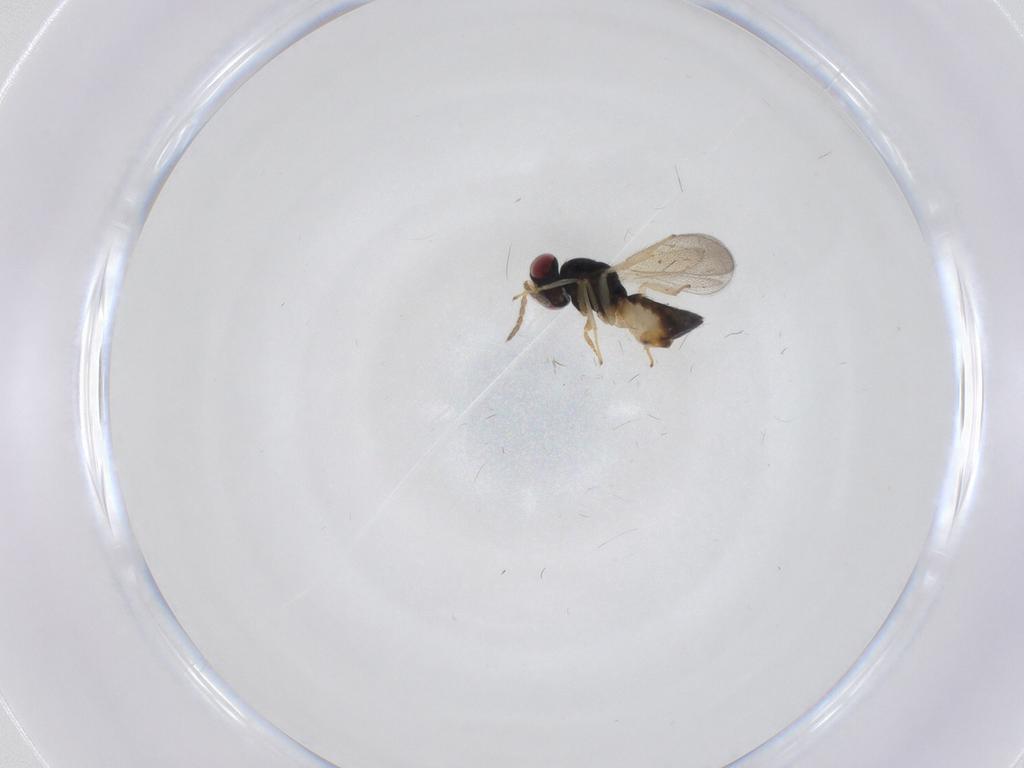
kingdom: Animalia
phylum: Arthropoda
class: Insecta
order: Hymenoptera
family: Eulophidae
